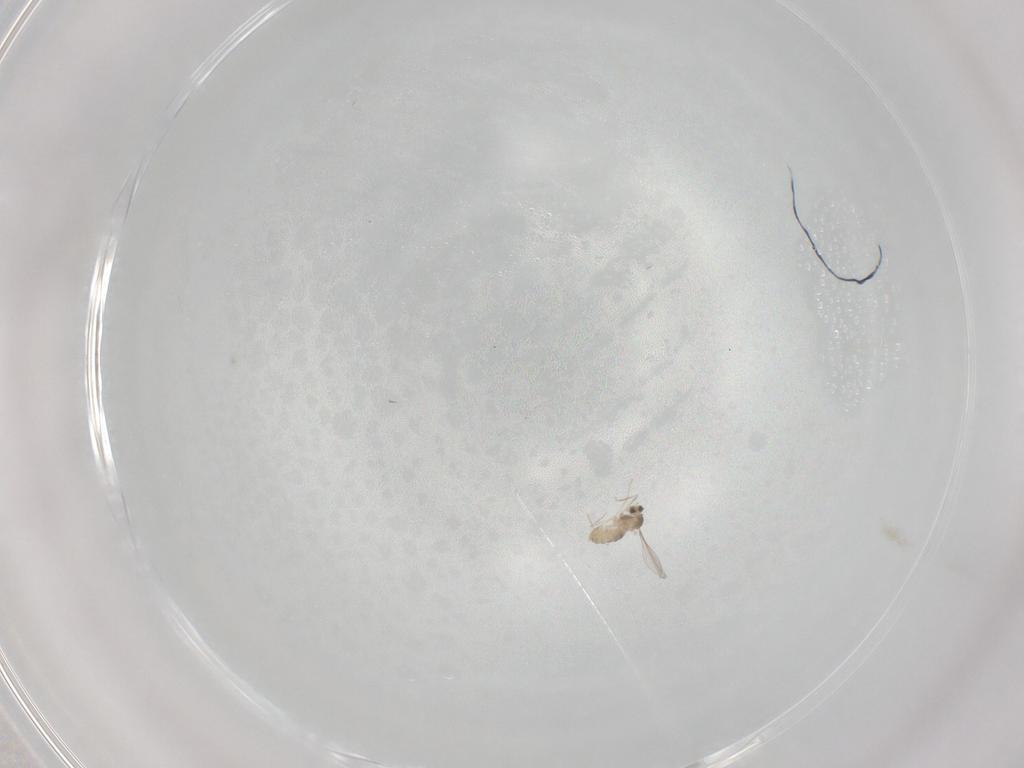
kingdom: Animalia
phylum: Arthropoda
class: Insecta
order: Diptera
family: Cecidomyiidae
